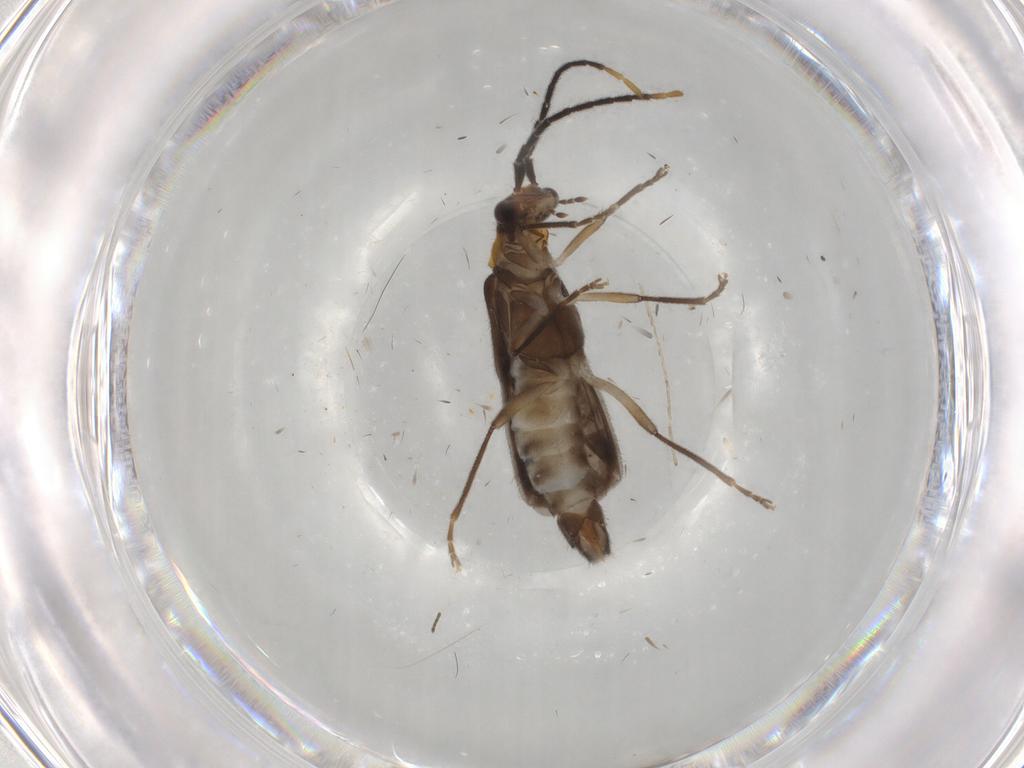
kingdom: Animalia
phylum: Arthropoda
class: Insecta
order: Coleoptera
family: Cantharidae
